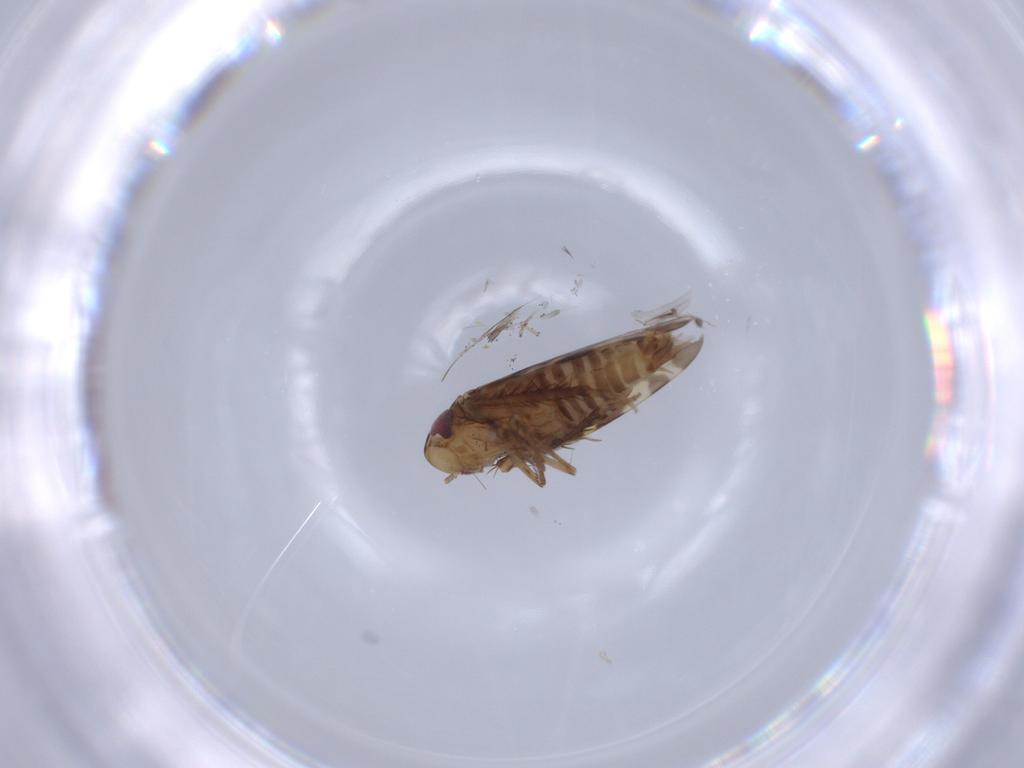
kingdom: Animalia
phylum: Arthropoda
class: Insecta
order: Hemiptera
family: Cicadellidae
